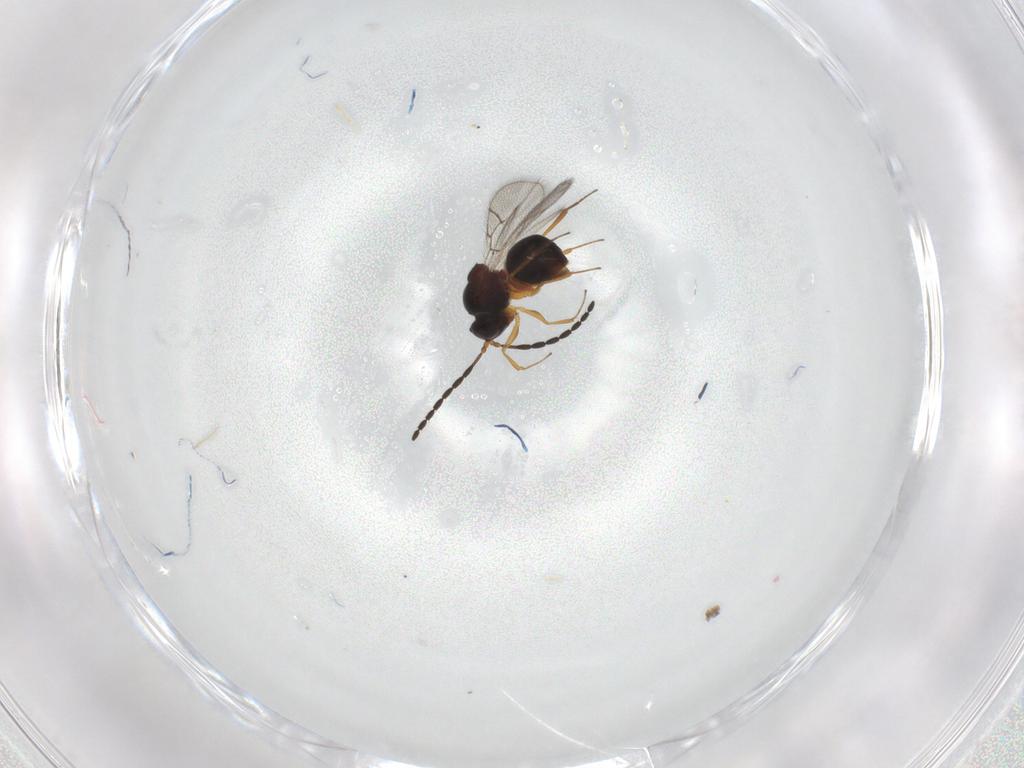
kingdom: Animalia
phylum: Arthropoda
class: Insecta
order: Hymenoptera
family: Figitidae
